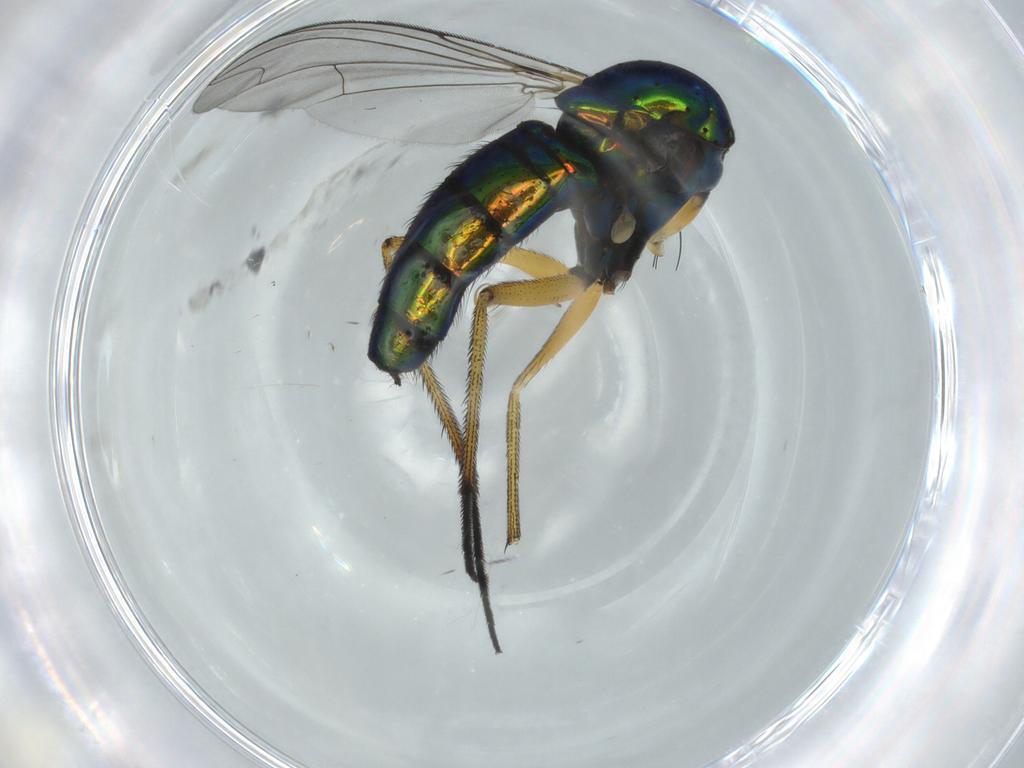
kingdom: Animalia
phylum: Arthropoda
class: Insecta
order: Diptera
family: Dolichopodidae
